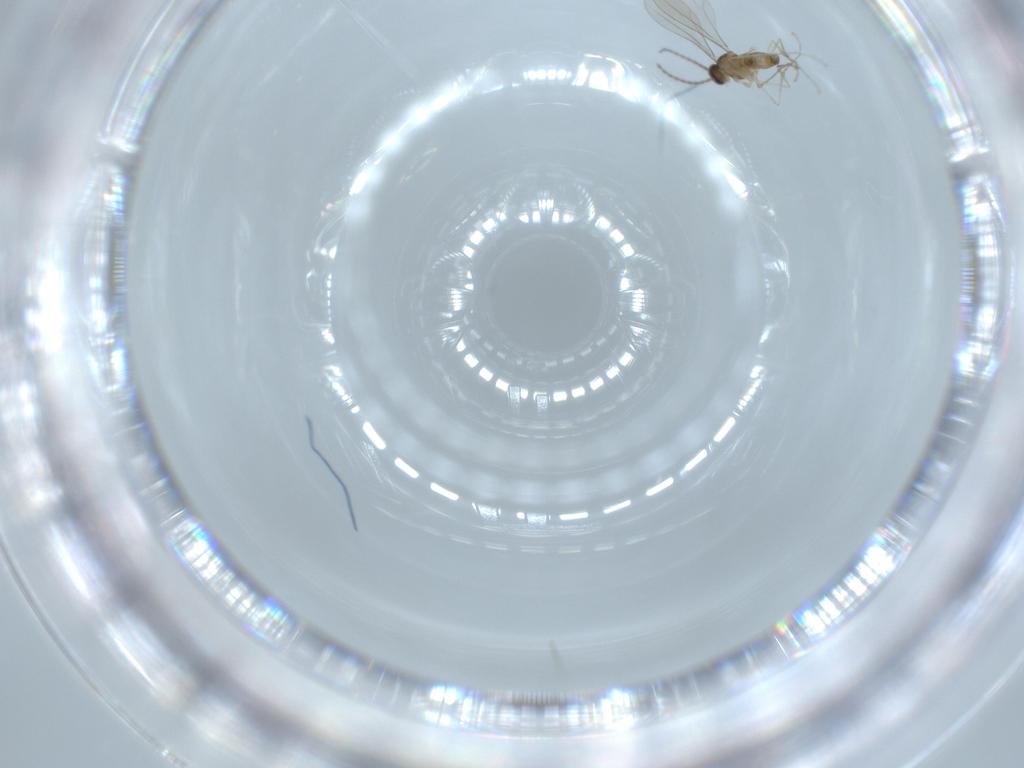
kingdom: Animalia
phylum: Arthropoda
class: Insecta
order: Diptera
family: Cecidomyiidae
